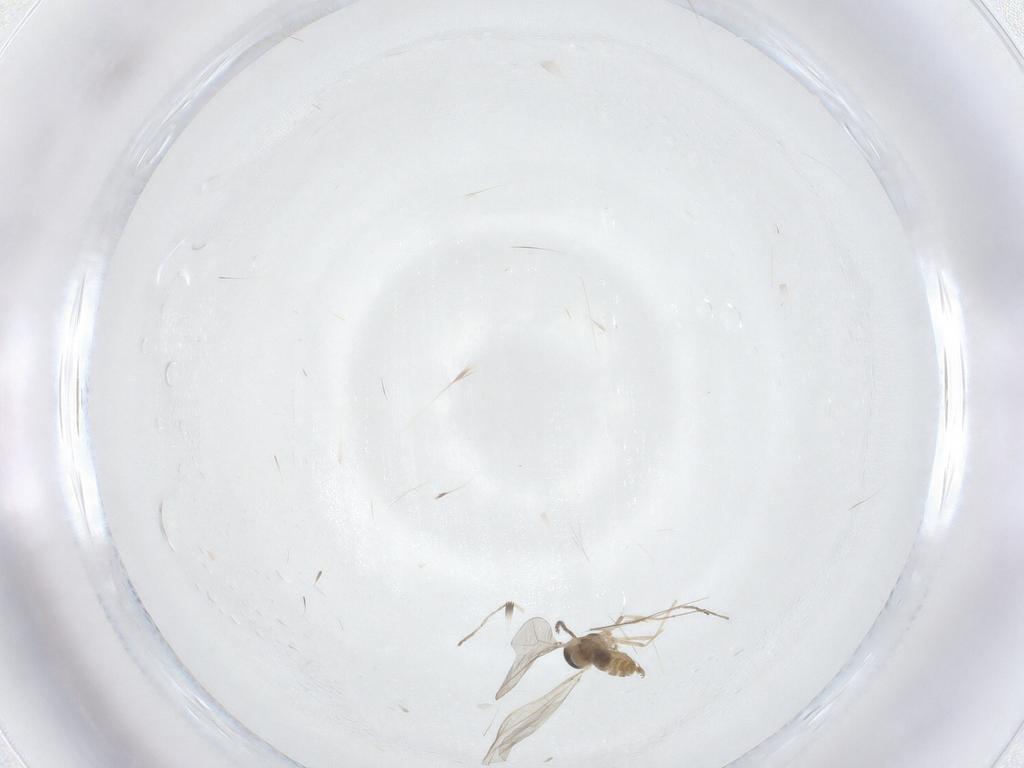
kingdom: Animalia
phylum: Arthropoda
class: Insecta
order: Diptera
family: Cecidomyiidae
